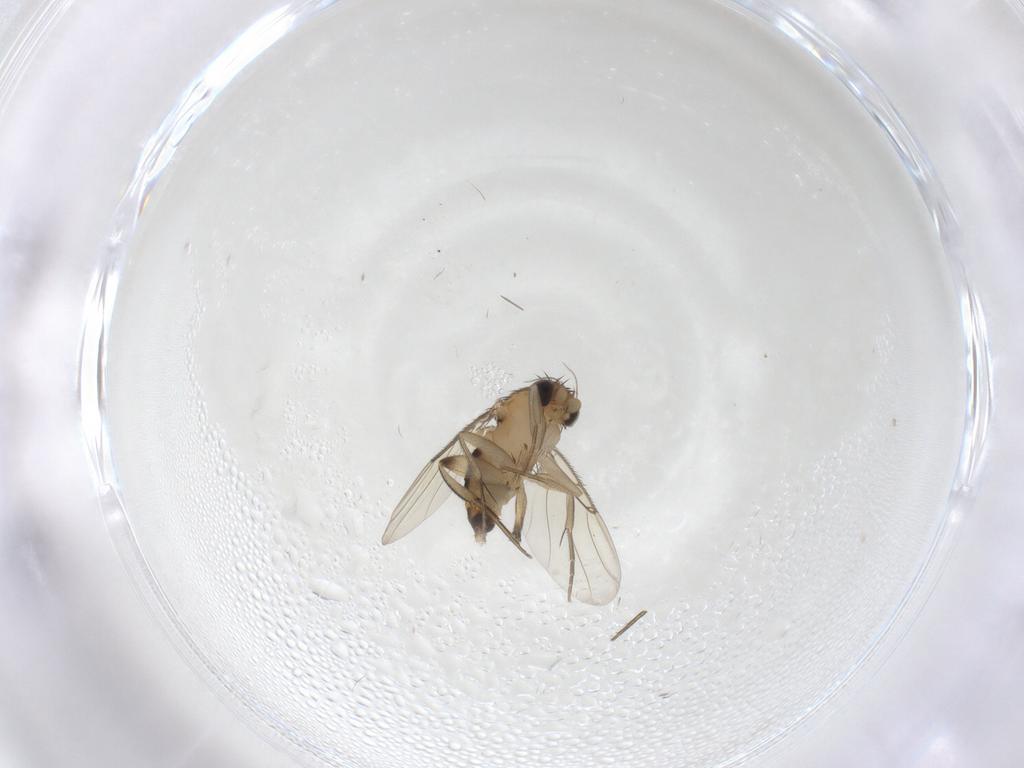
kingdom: Animalia
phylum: Arthropoda
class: Insecta
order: Diptera
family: Phoridae
